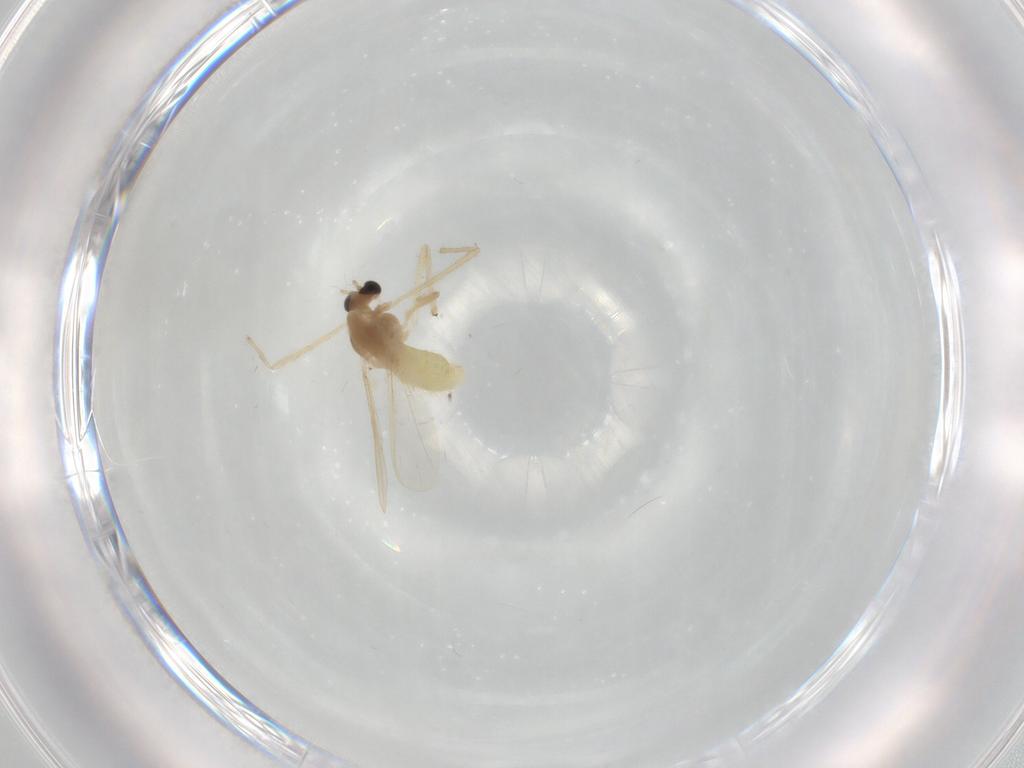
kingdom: Animalia
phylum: Arthropoda
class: Insecta
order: Diptera
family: Chironomidae
